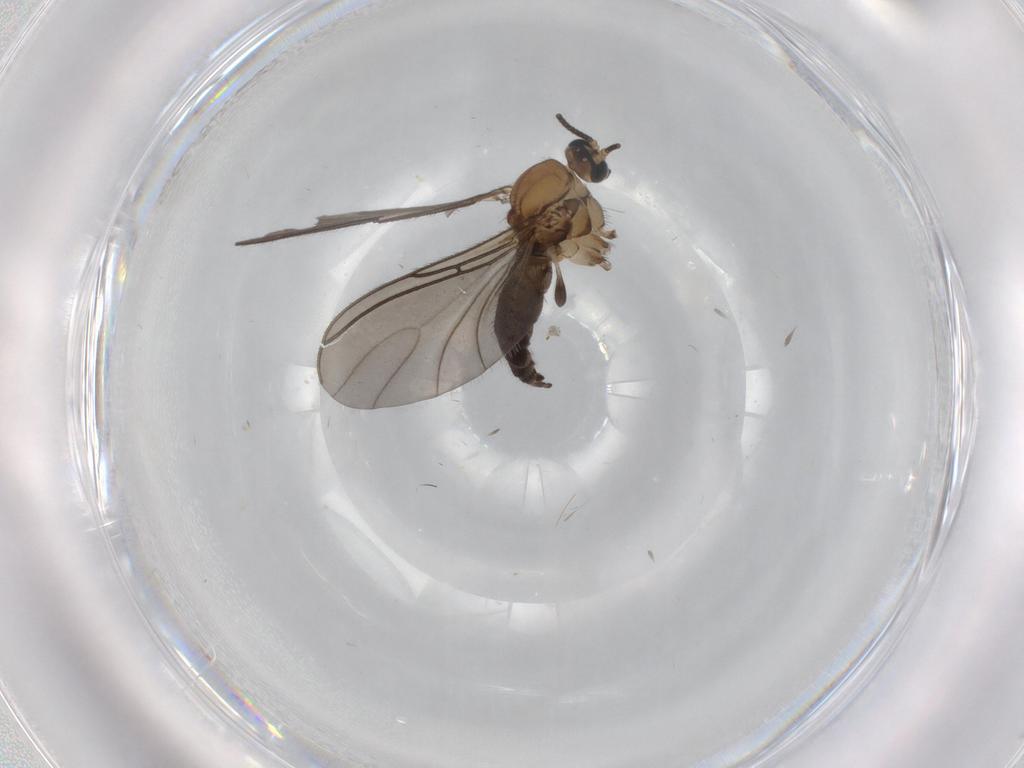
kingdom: Animalia
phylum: Arthropoda
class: Insecta
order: Diptera
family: Sciaridae
